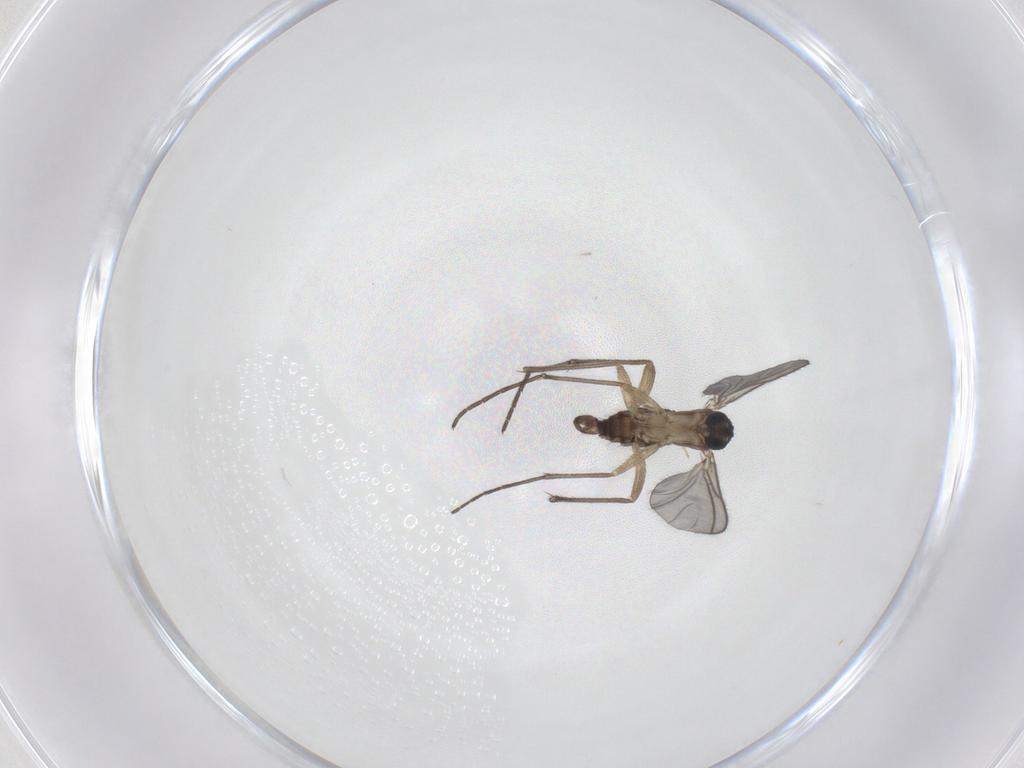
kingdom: Animalia
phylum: Arthropoda
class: Insecta
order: Diptera
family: Sciaridae
